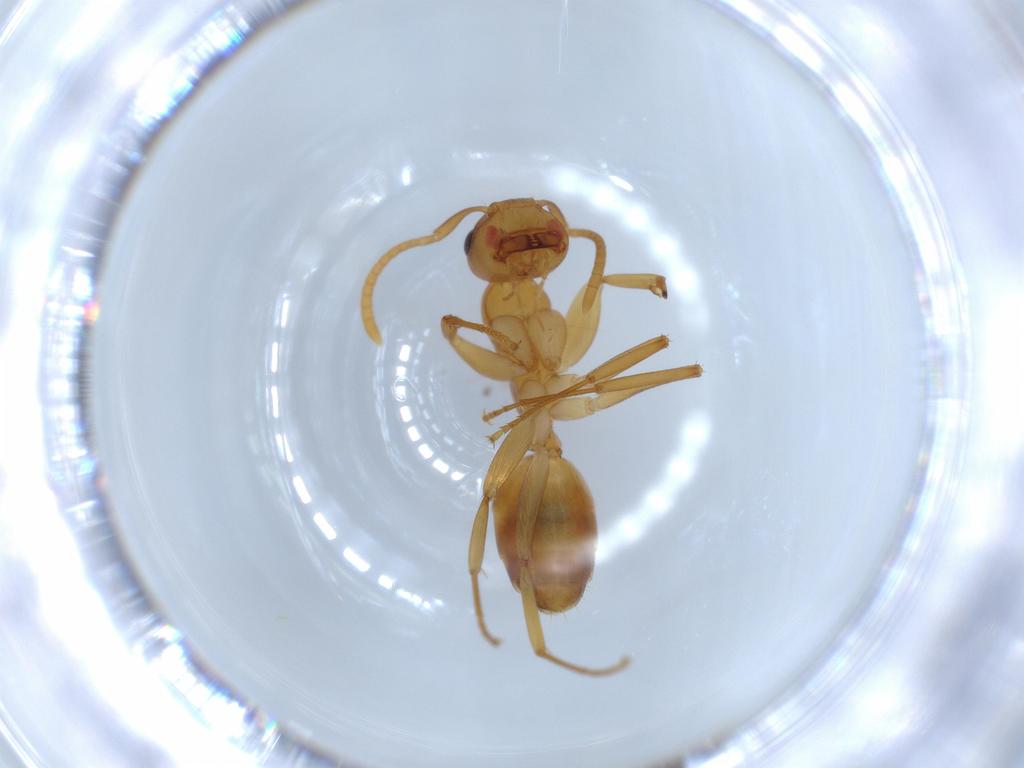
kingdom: Animalia
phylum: Arthropoda
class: Insecta
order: Hymenoptera
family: Formicidae
